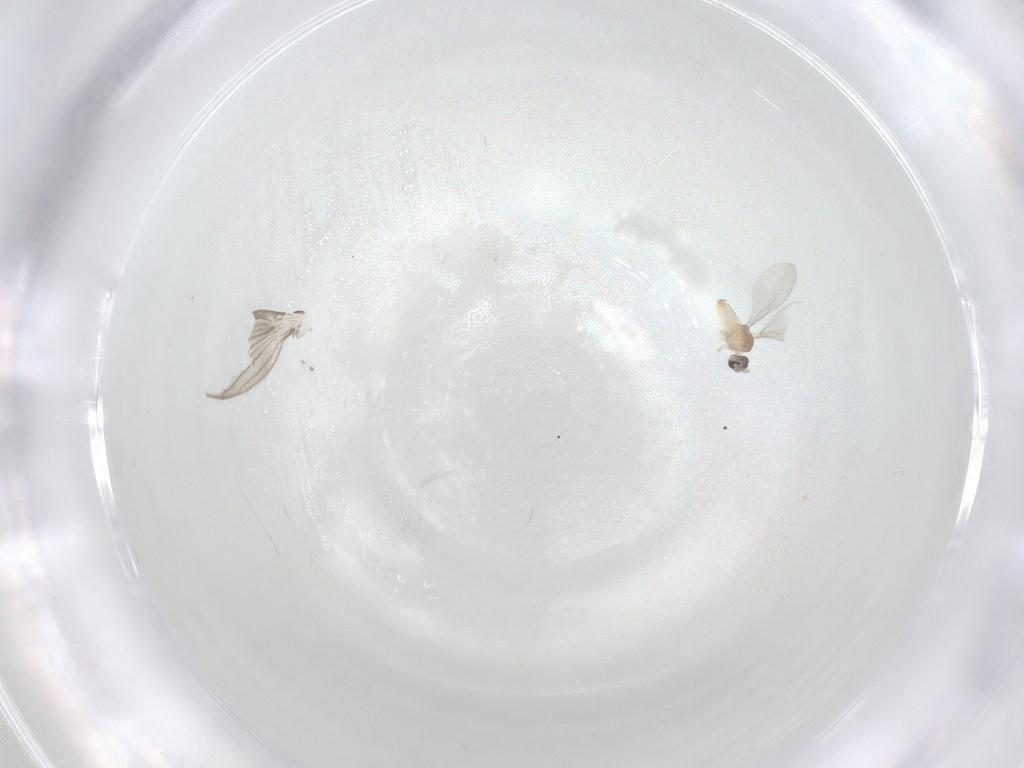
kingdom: Animalia
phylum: Arthropoda
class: Insecta
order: Diptera
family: Psychodidae
